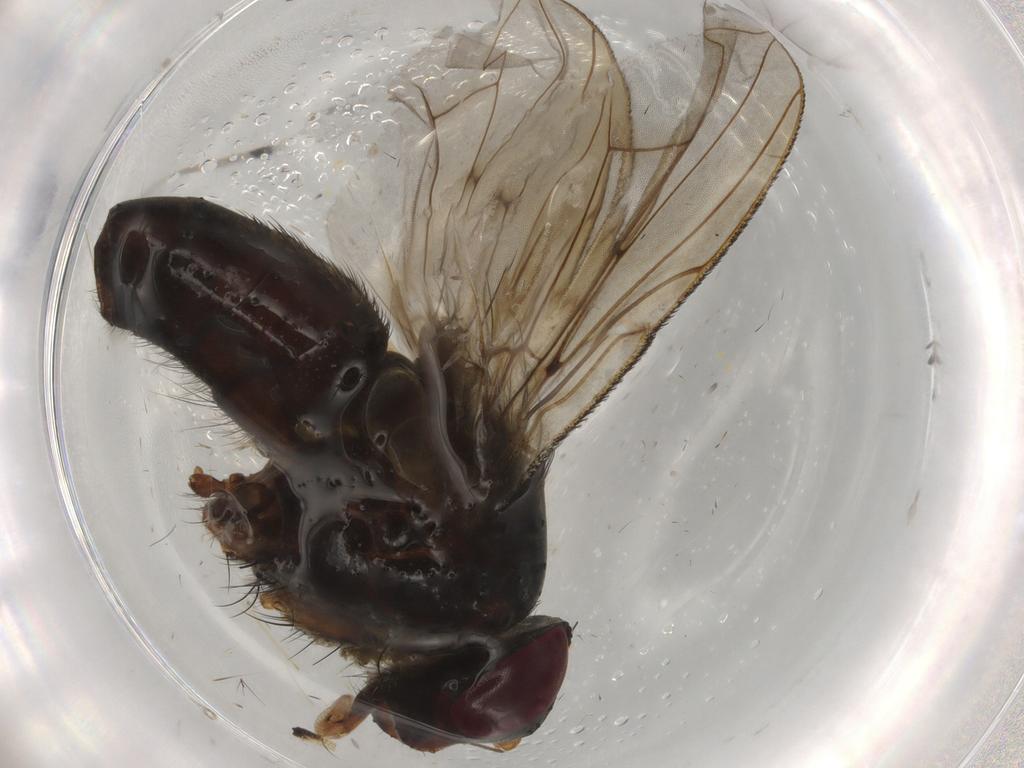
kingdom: Animalia
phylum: Arthropoda
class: Insecta
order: Diptera
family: Tachinidae
